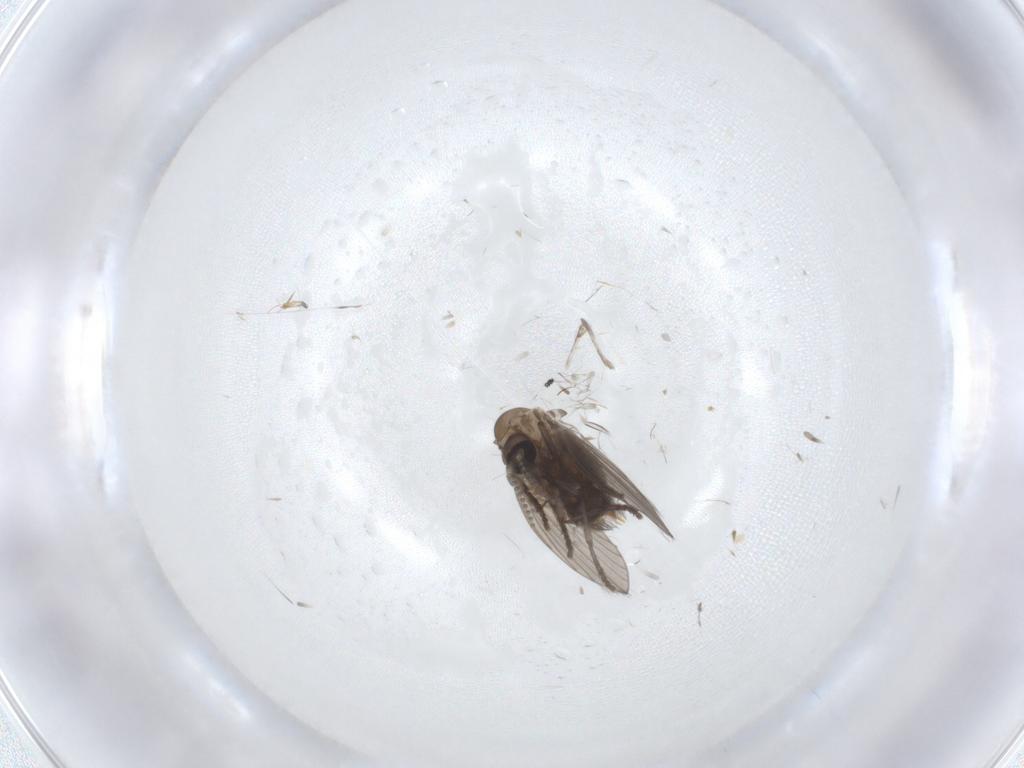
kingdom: Animalia
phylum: Arthropoda
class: Insecta
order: Diptera
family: Psychodidae
